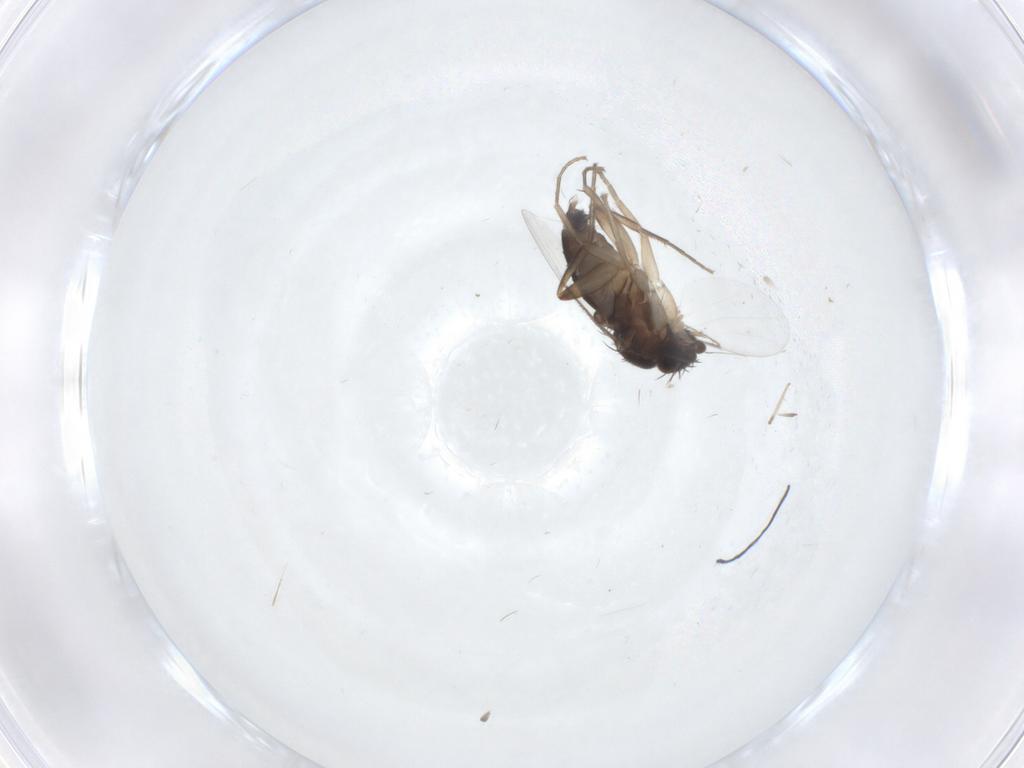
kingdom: Animalia
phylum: Arthropoda
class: Insecta
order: Diptera
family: Phoridae
